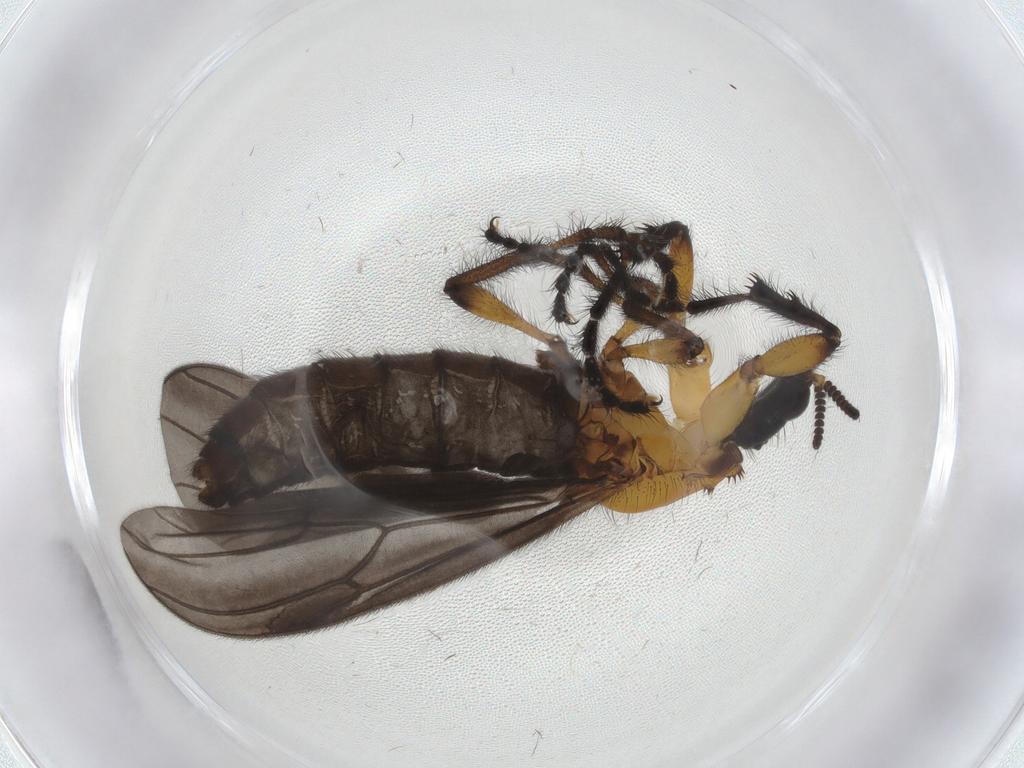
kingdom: Animalia
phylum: Arthropoda
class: Insecta
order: Diptera
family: Bibionidae
